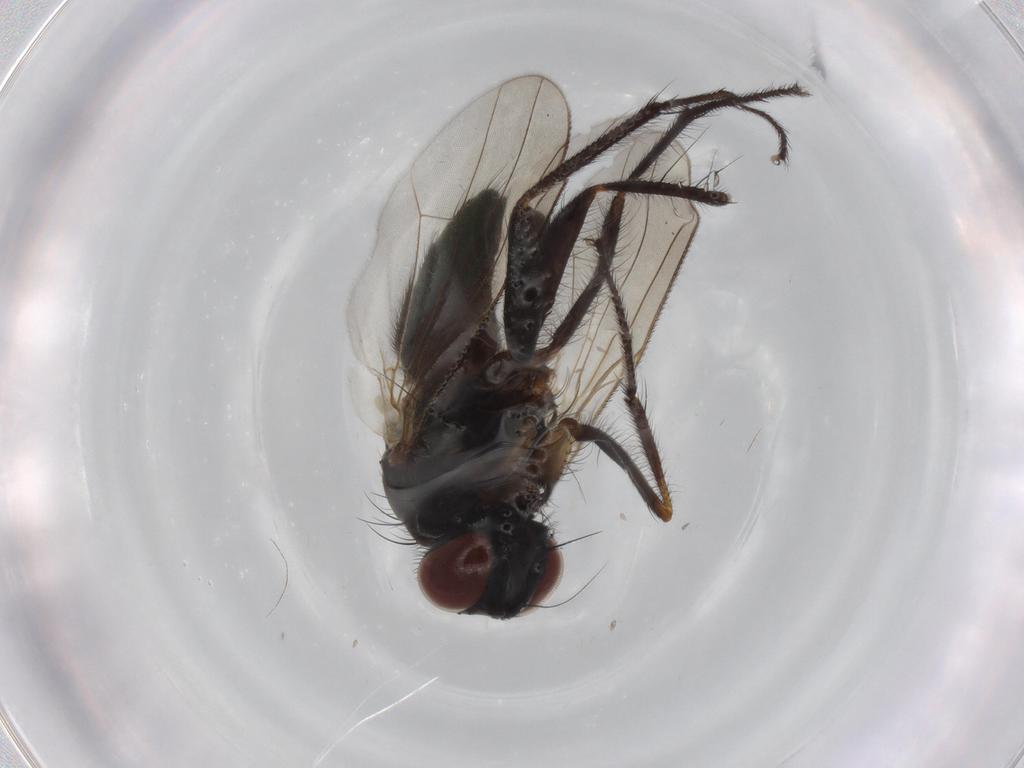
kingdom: Animalia
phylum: Arthropoda
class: Insecta
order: Diptera
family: Muscidae
